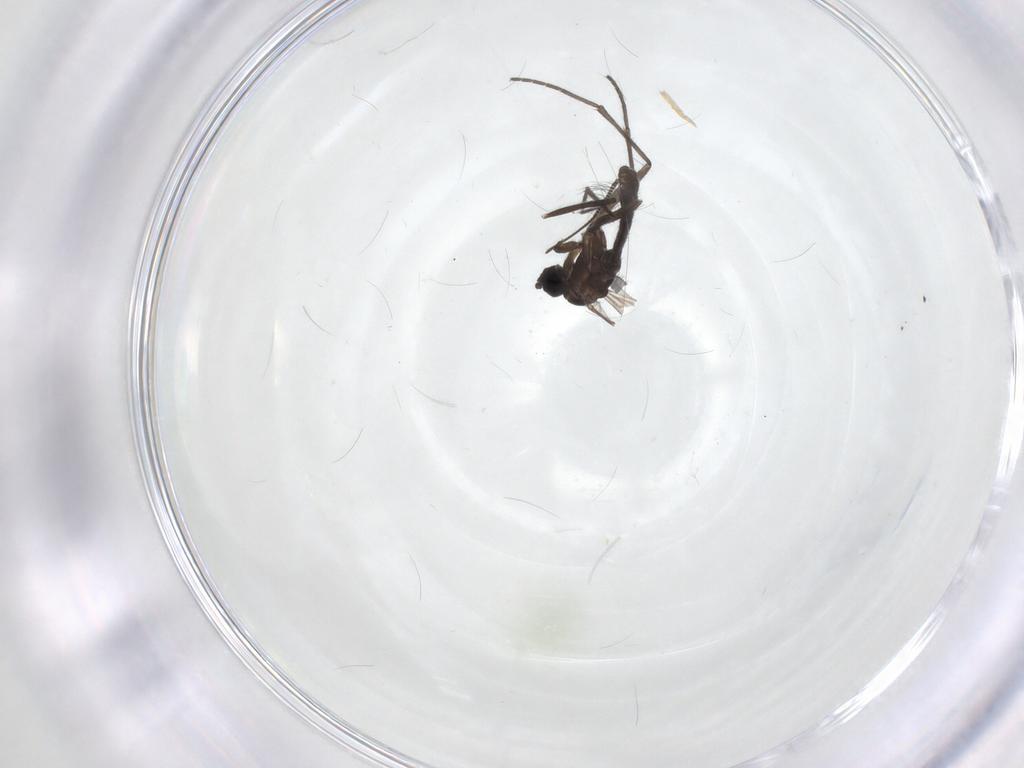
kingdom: Animalia
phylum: Arthropoda
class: Insecta
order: Diptera
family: Sciaridae
